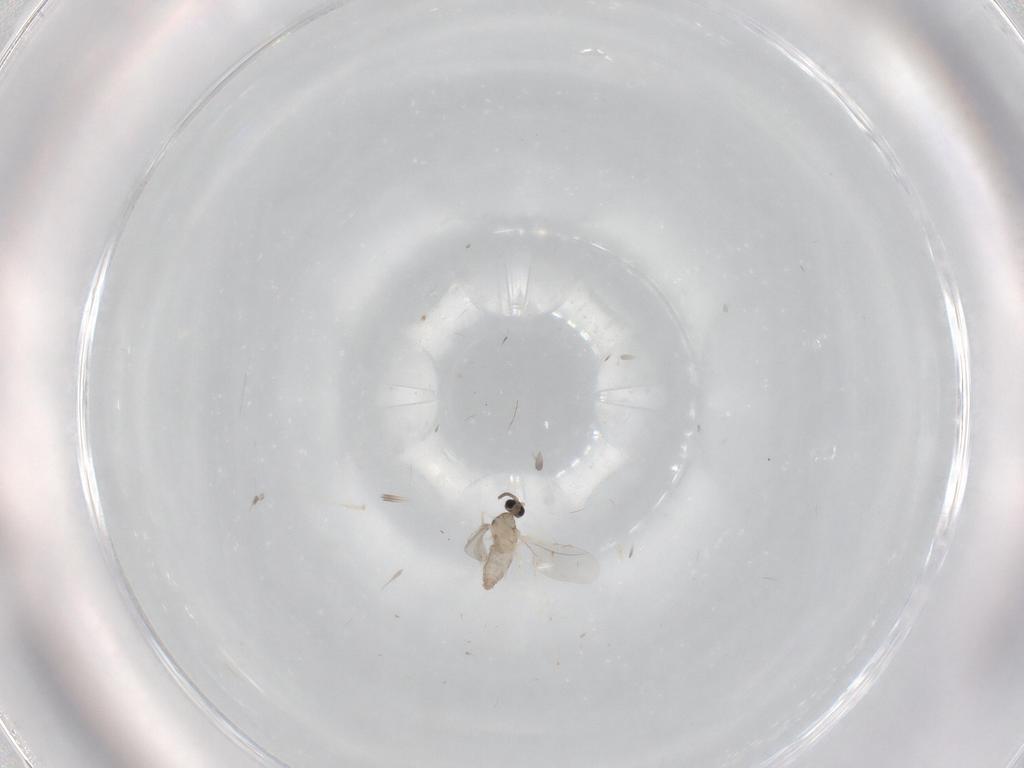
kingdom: Animalia
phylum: Arthropoda
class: Insecta
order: Diptera
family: Cecidomyiidae
